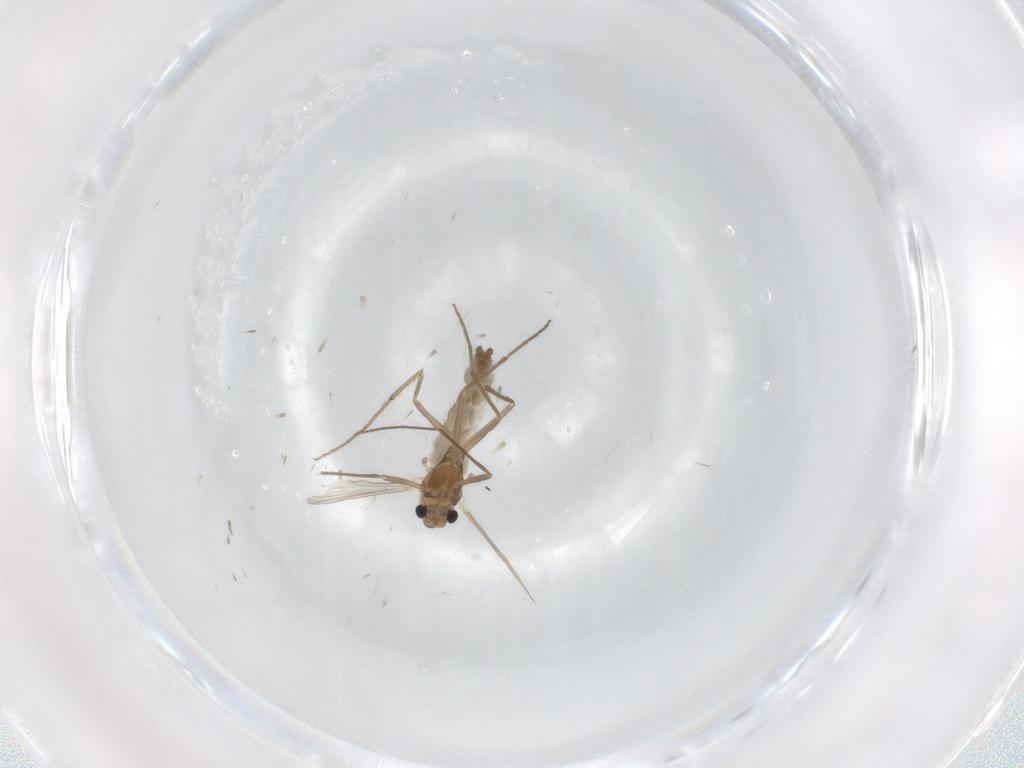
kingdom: Animalia
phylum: Arthropoda
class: Insecta
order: Diptera
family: Chironomidae
